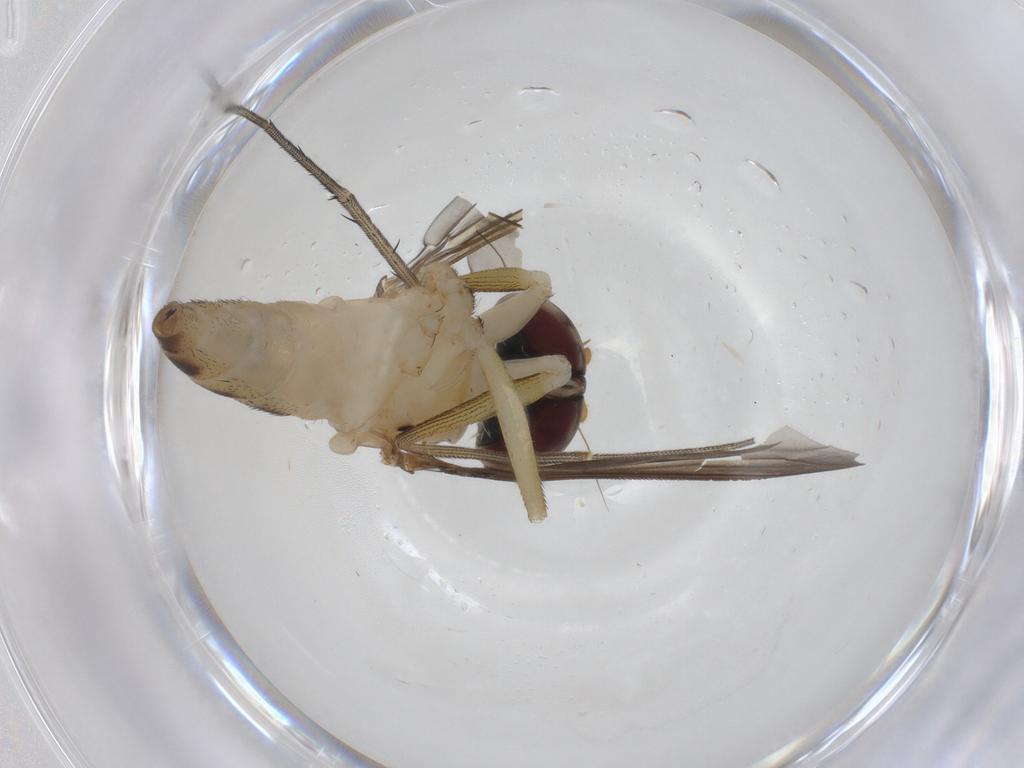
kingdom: Animalia
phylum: Arthropoda
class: Insecta
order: Diptera
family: Dolichopodidae
